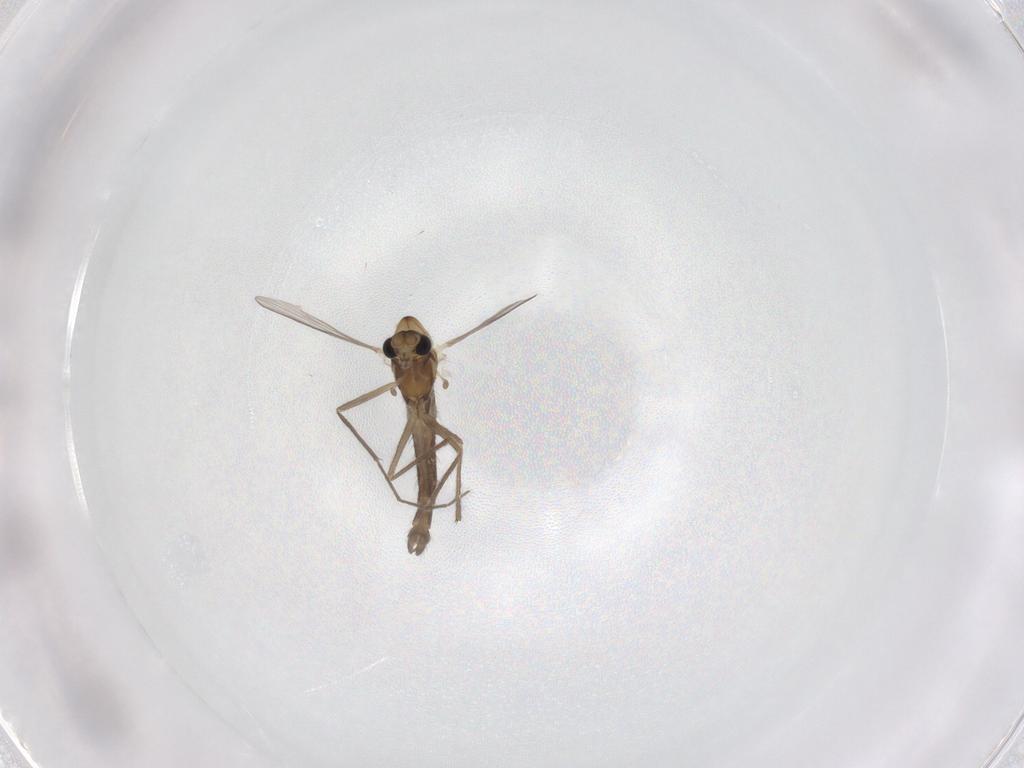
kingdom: Animalia
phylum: Arthropoda
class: Insecta
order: Diptera
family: Chironomidae
